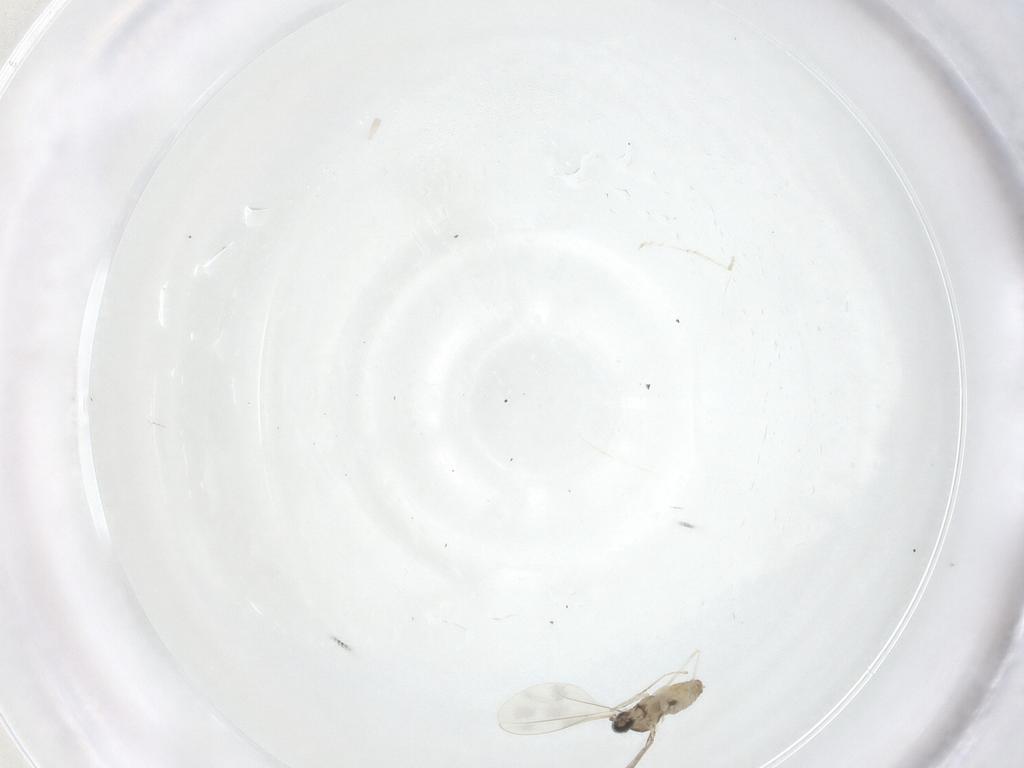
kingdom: Animalia
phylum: Arthropoda
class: Insecta
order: Diptera
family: Cecidomyiidae
